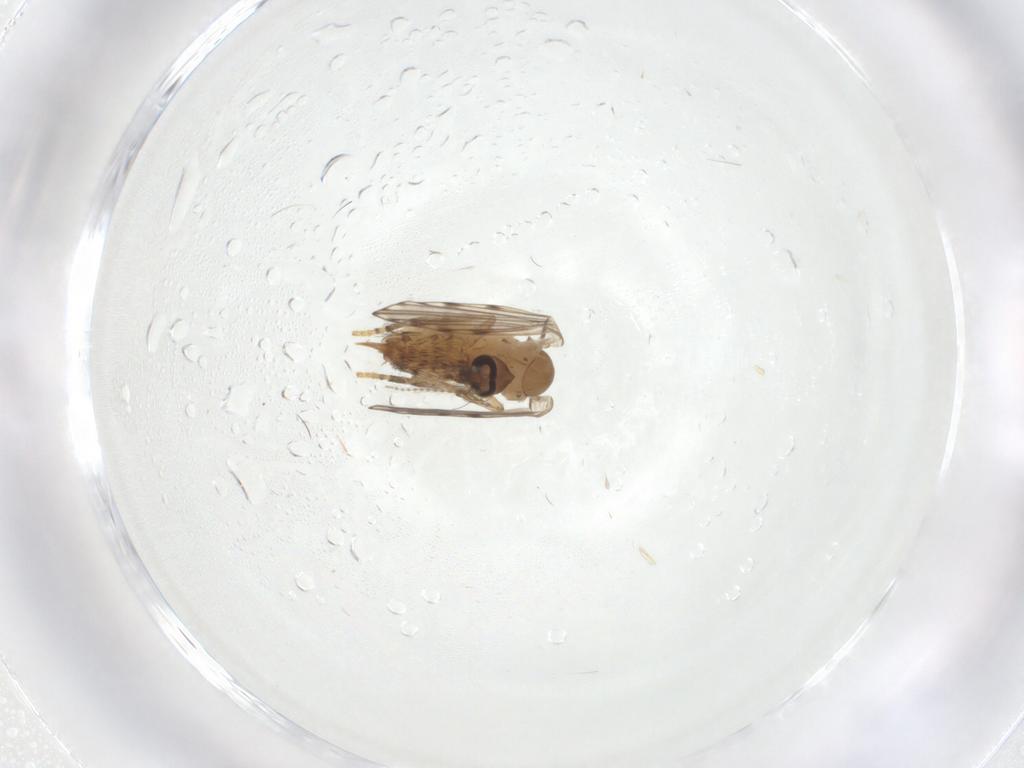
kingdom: Animalia
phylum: Arthropoda
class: Insecta
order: Diptera
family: Psychodidae
